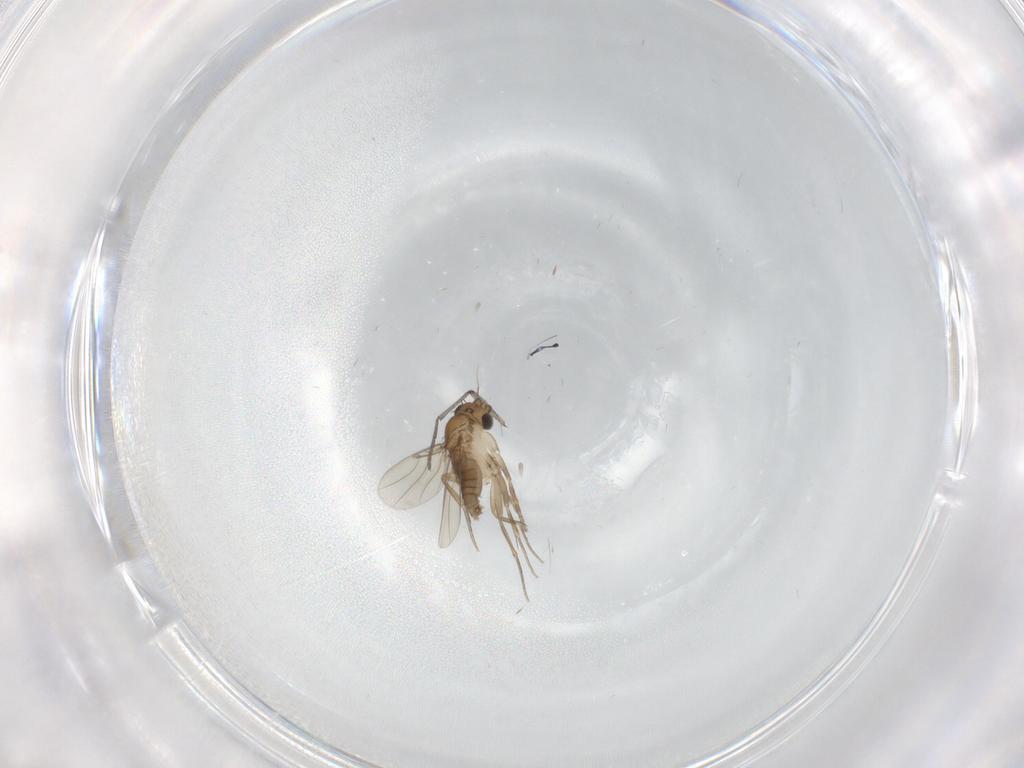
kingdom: Animalia
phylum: Arthropoda
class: Insecta
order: Diptera
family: Sciaridae
